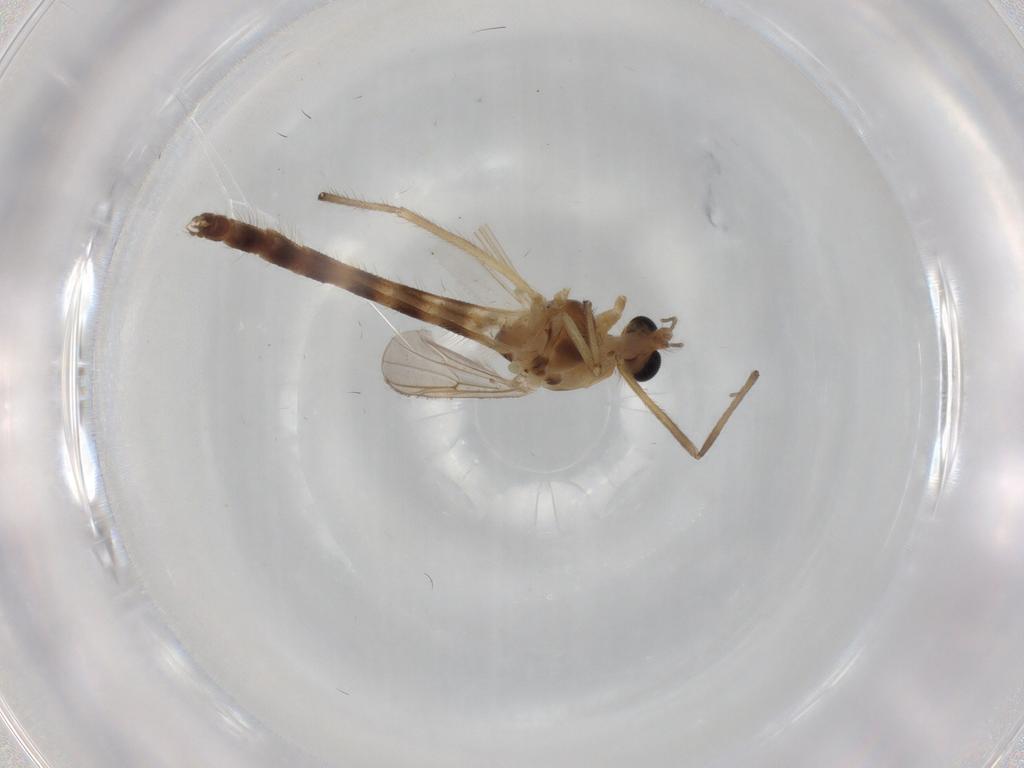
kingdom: Animalia
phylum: Arthropoda
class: Insecta
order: Diptera
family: Chironomidae
